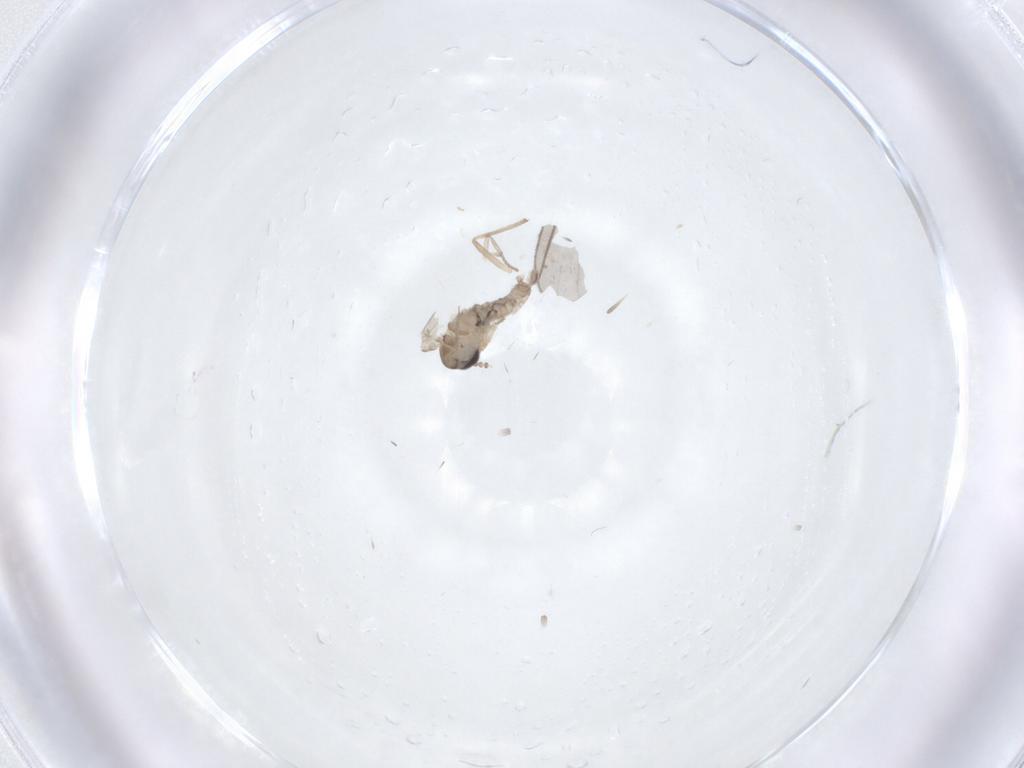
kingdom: Animalia
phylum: Arthropoda
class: Insecta
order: Diptera
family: Psychodidae
